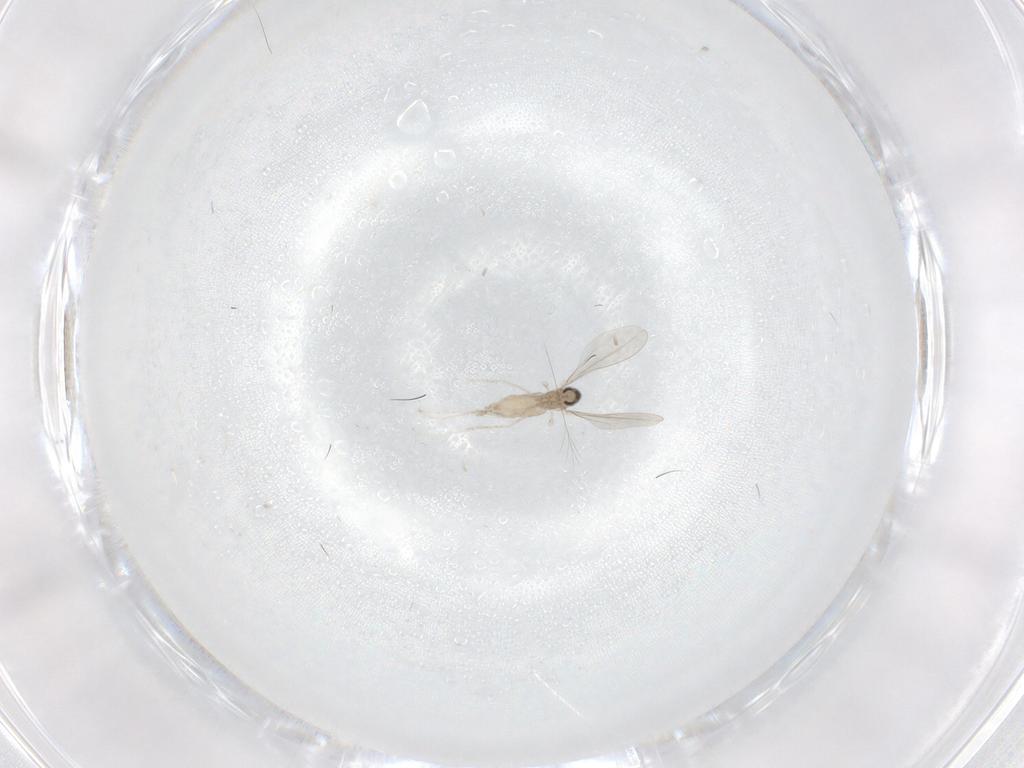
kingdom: Animalia
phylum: Arthropoda
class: Insecta
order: Diptera
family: Cecidomyiidae
